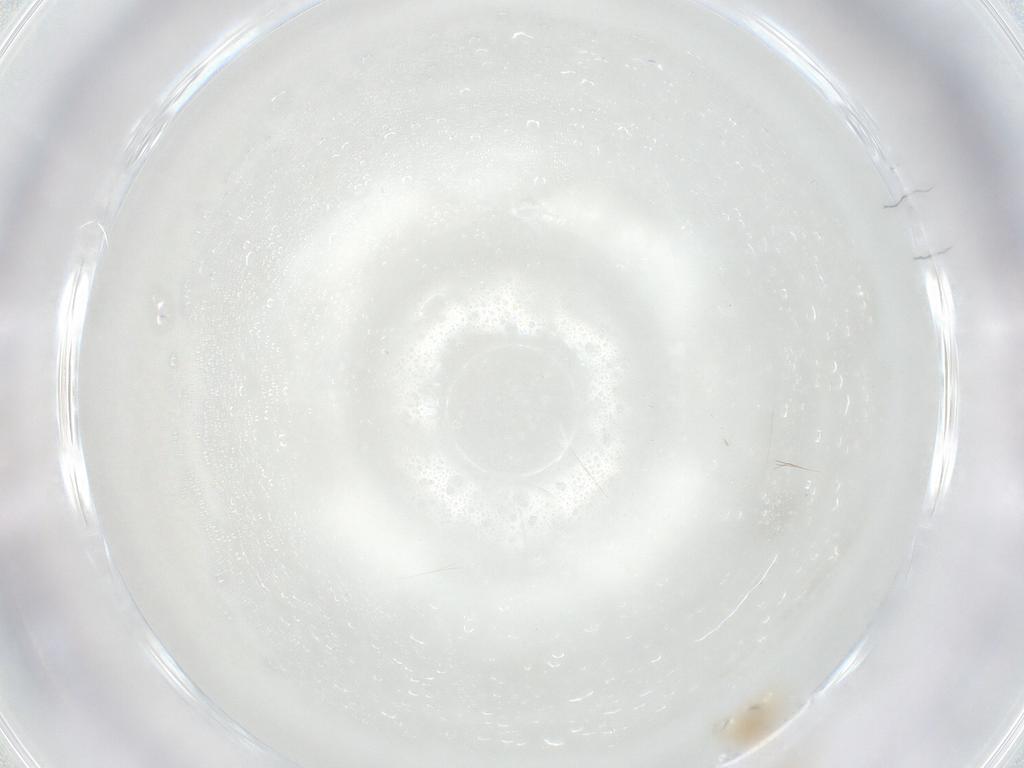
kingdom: Animalia
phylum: Arthropoda
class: Arachnida
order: Trombidiformes
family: Anystidae
